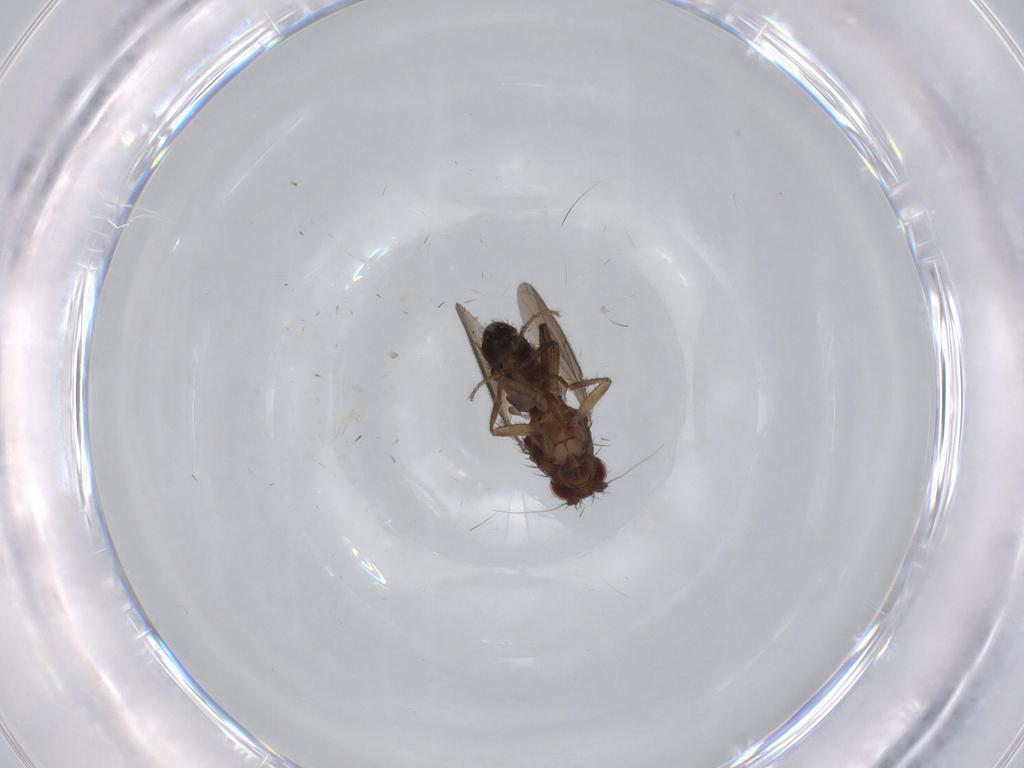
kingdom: Animalia
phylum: Arthropoda
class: Insecta
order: Diptera
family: Sphaeroceridae
